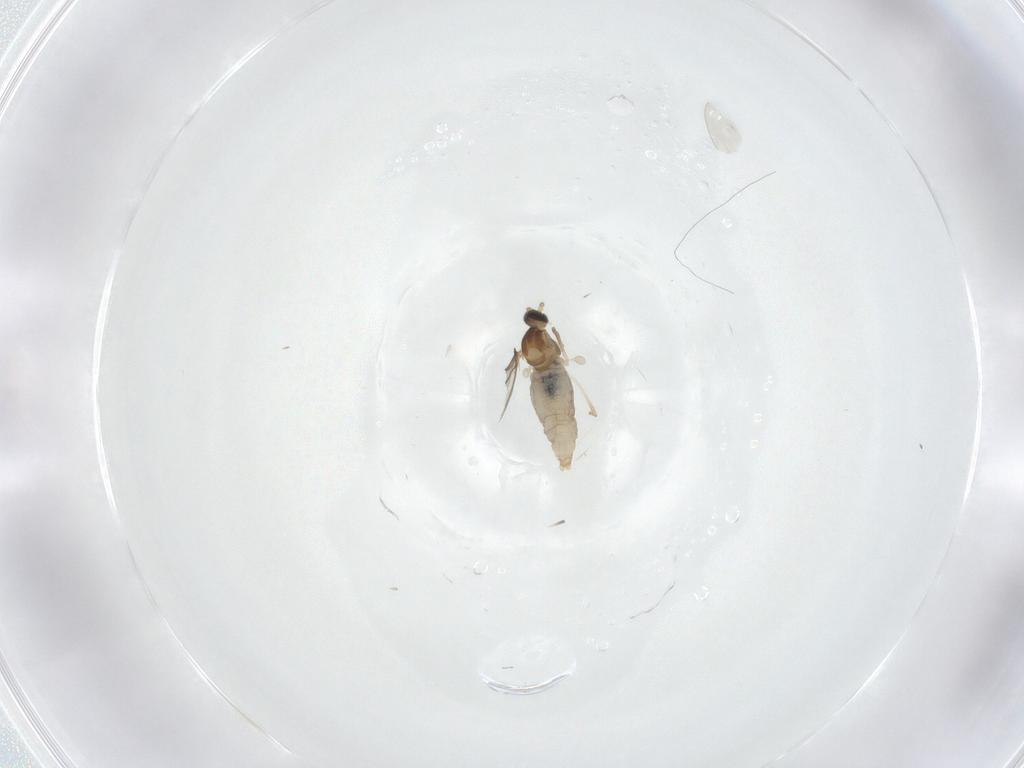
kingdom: Animalia
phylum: Arthropoda
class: Insecta
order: Diptera
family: Cecidomyiidae
